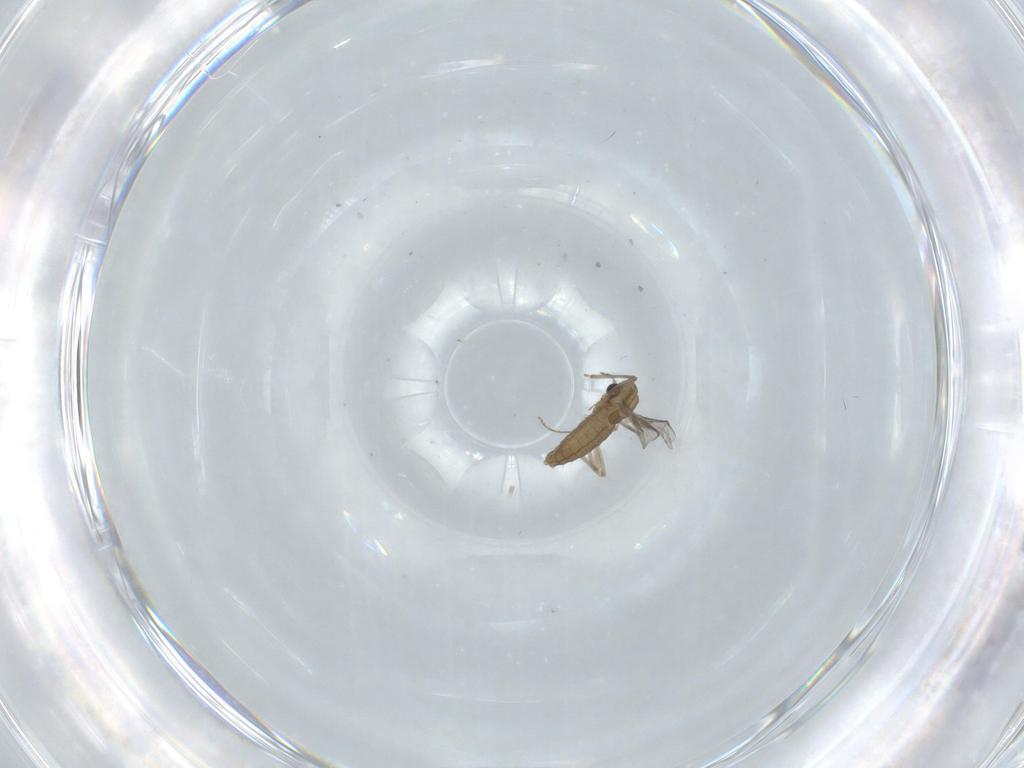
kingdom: Animalia
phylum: Arthropoda
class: Insecta
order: Diptera
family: Chironomidae
